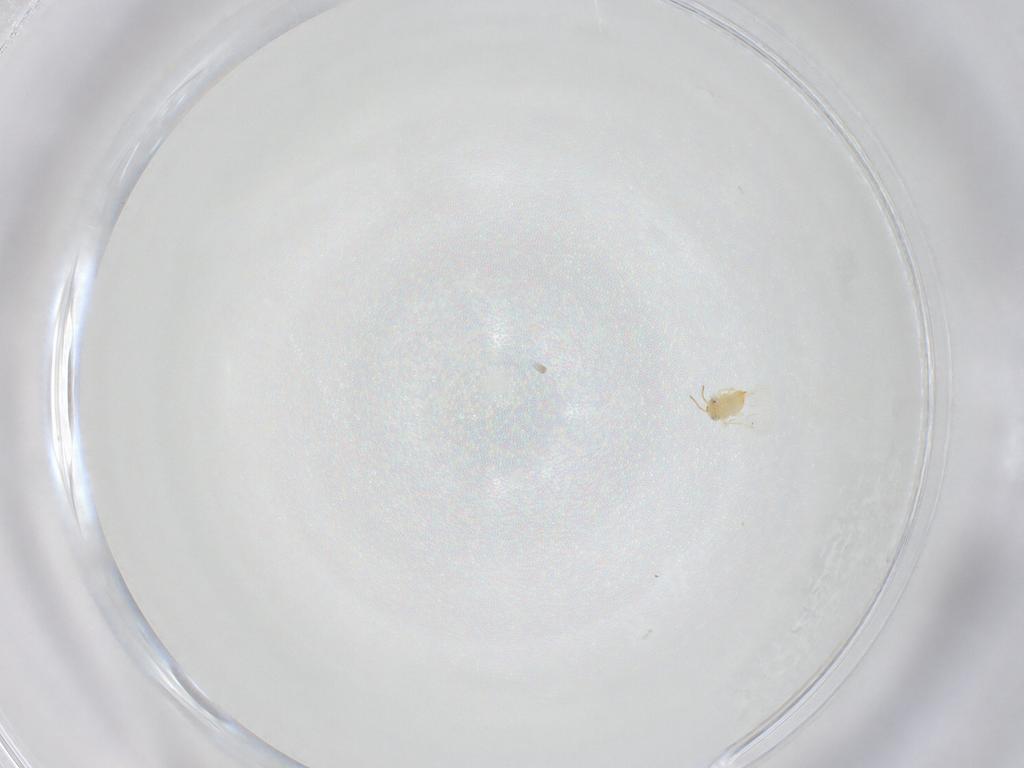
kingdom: Animalia
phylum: Arthropoda
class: Insecta
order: Hymenoptera
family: Aphelinidae
